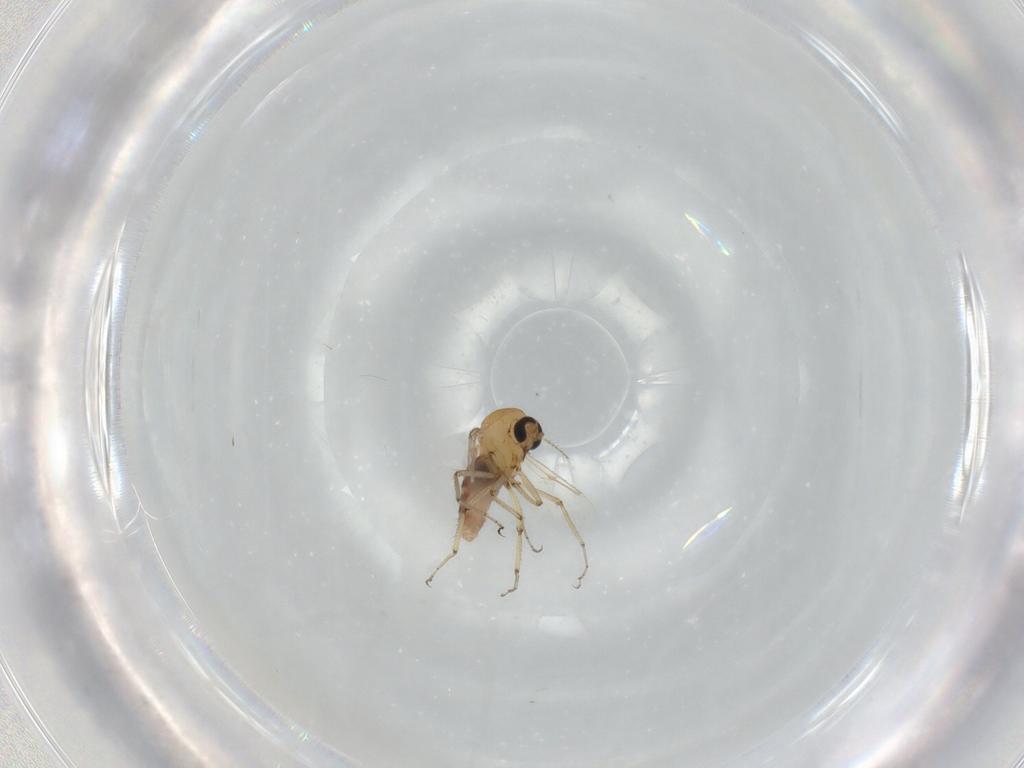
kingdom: Animalia
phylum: Arthropoda
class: Insecta
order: Diptera
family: Ceratopogonidae
